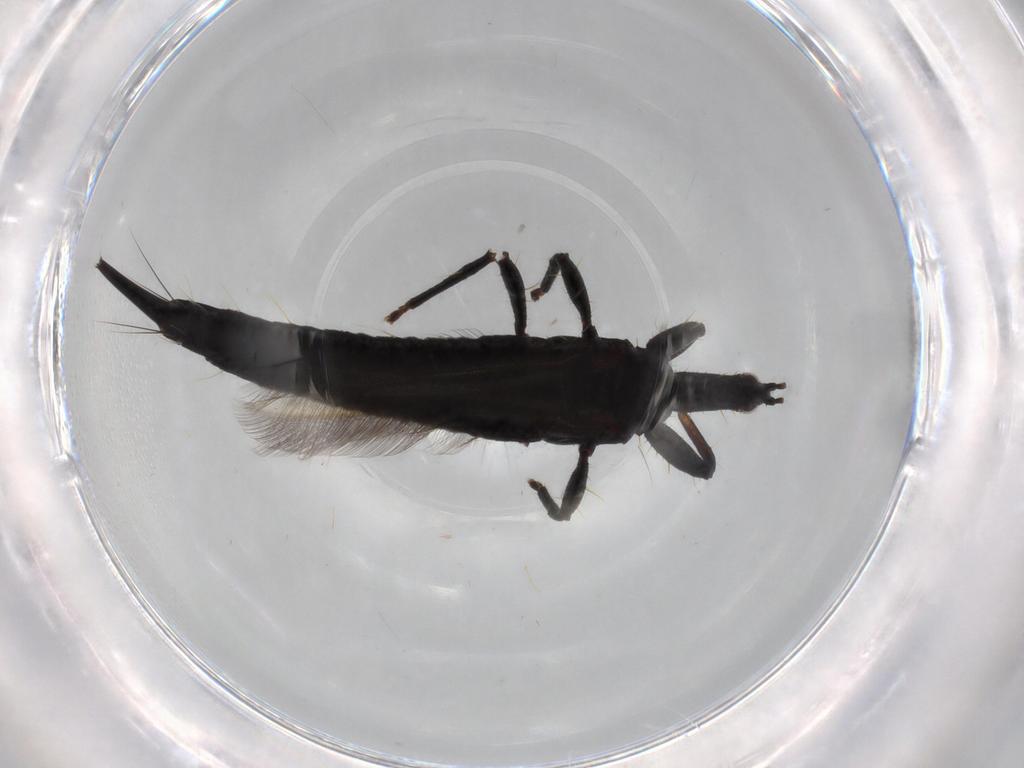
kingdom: Animalia
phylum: Arthropoda
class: Insecta
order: Thysanoptera
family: Phlaeothripidae
